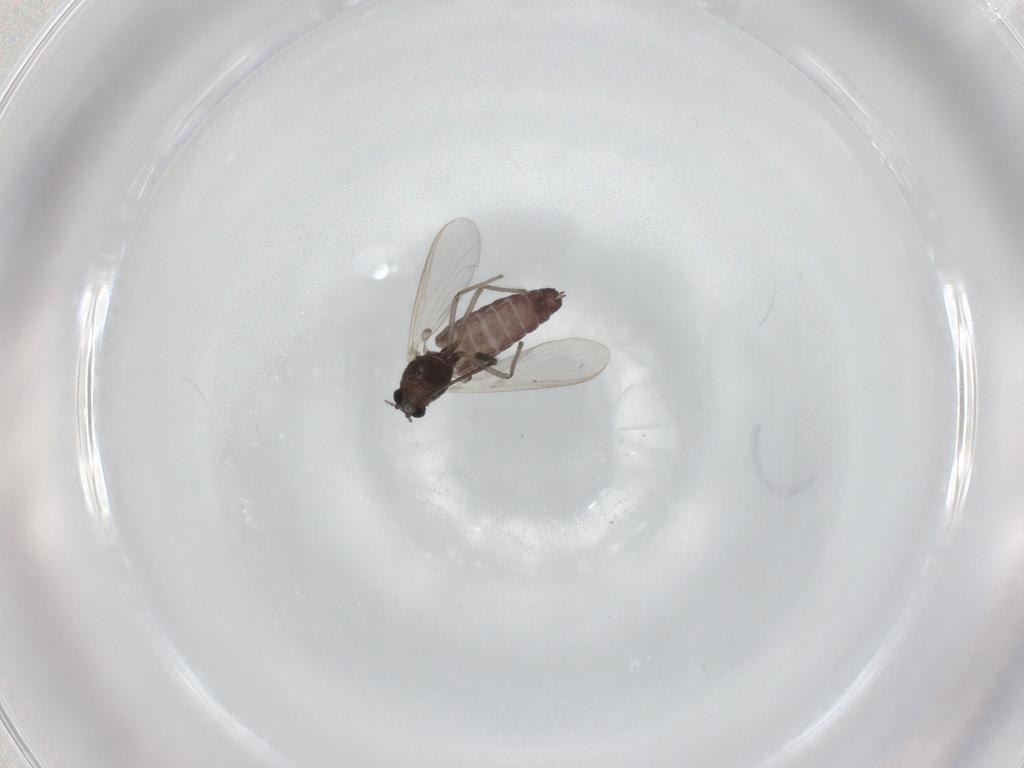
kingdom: Animalia
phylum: Arthropoda
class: Insecta
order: Diptera
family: Chironomidae
